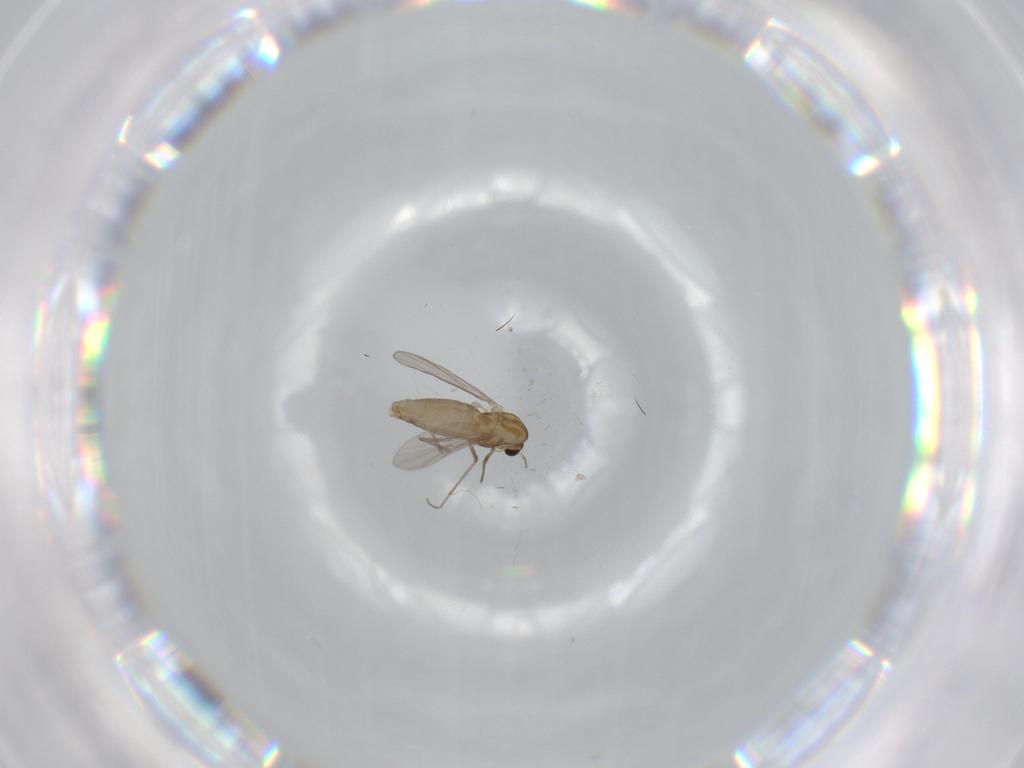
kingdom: Animalia
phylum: Arthropoda
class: Insecta
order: Diptera
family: Chironomidae
